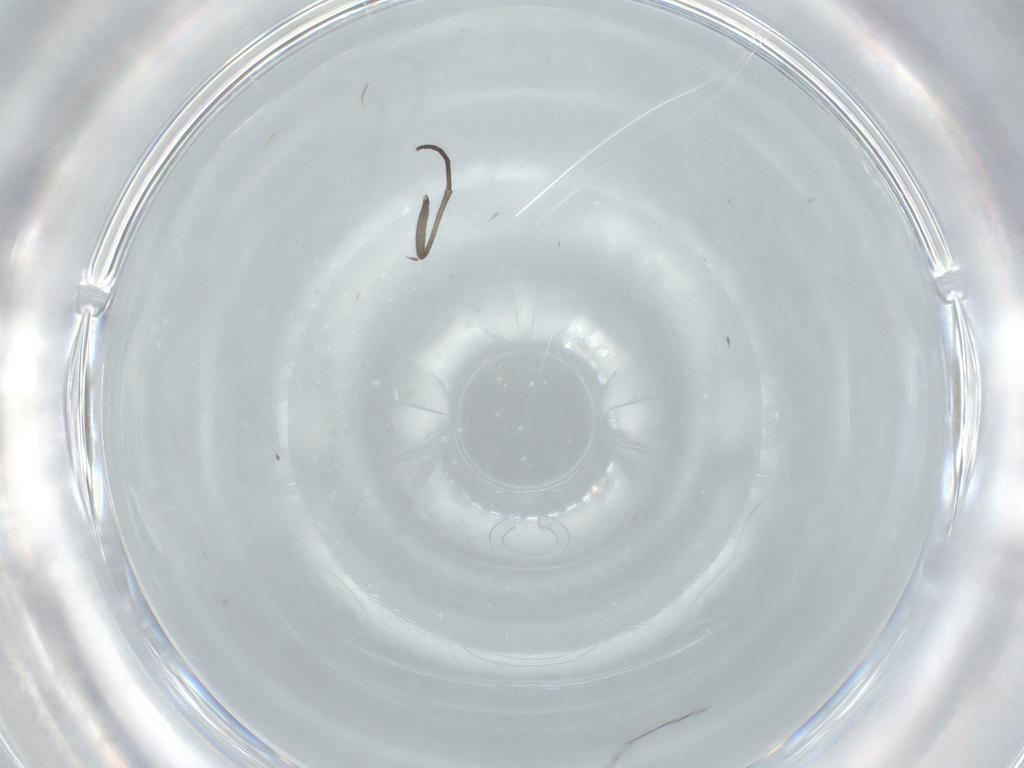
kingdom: Animalia
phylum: Arthropoda
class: Insecta
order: Diptera
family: Sciaridae
